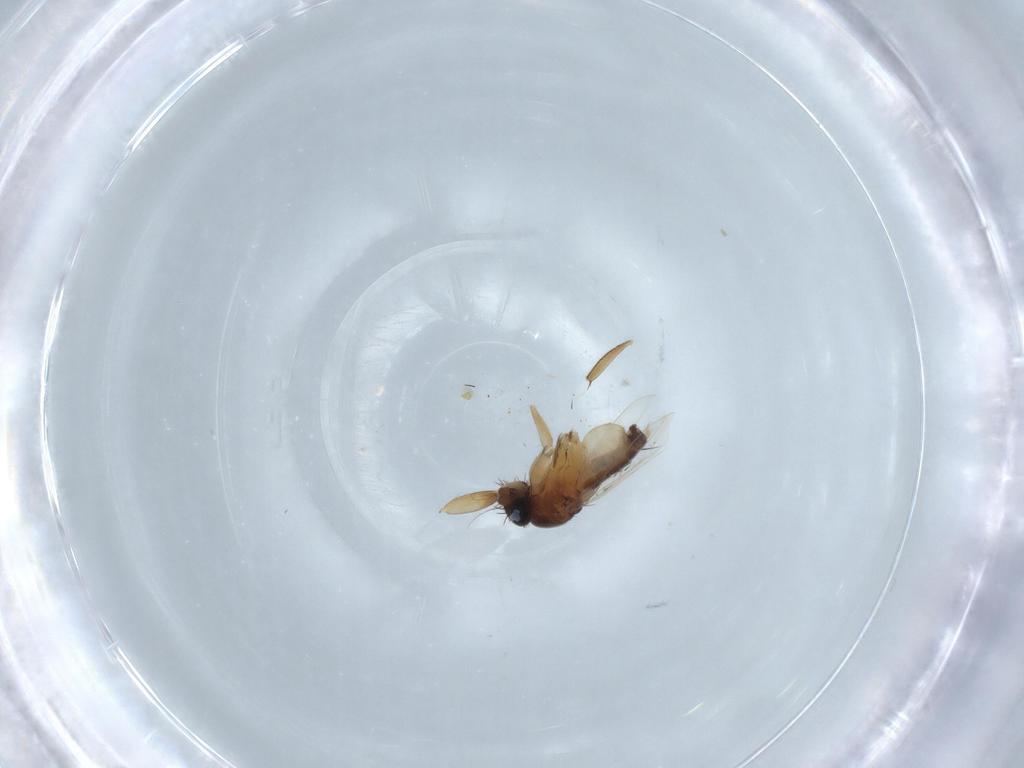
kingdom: Animalia
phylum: Arthropoda
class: Insecta
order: Diptera
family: Phoridae
